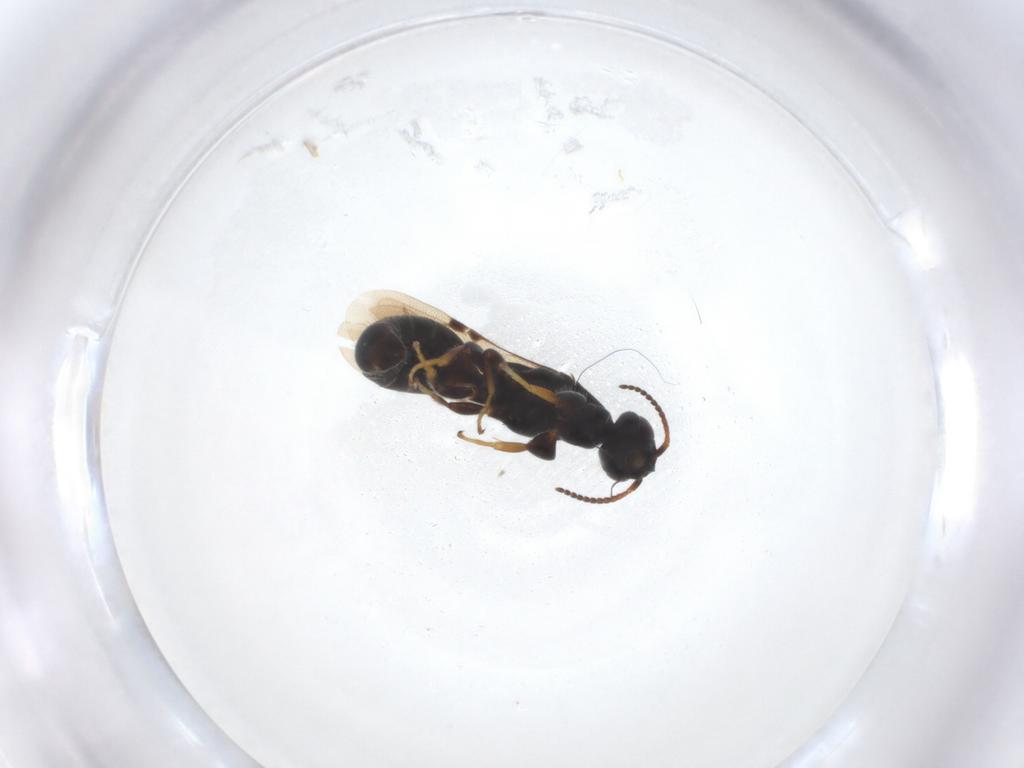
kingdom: Animalia
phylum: Arthropoda
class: Insecta
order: Hymenoptera
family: Bethylidae
